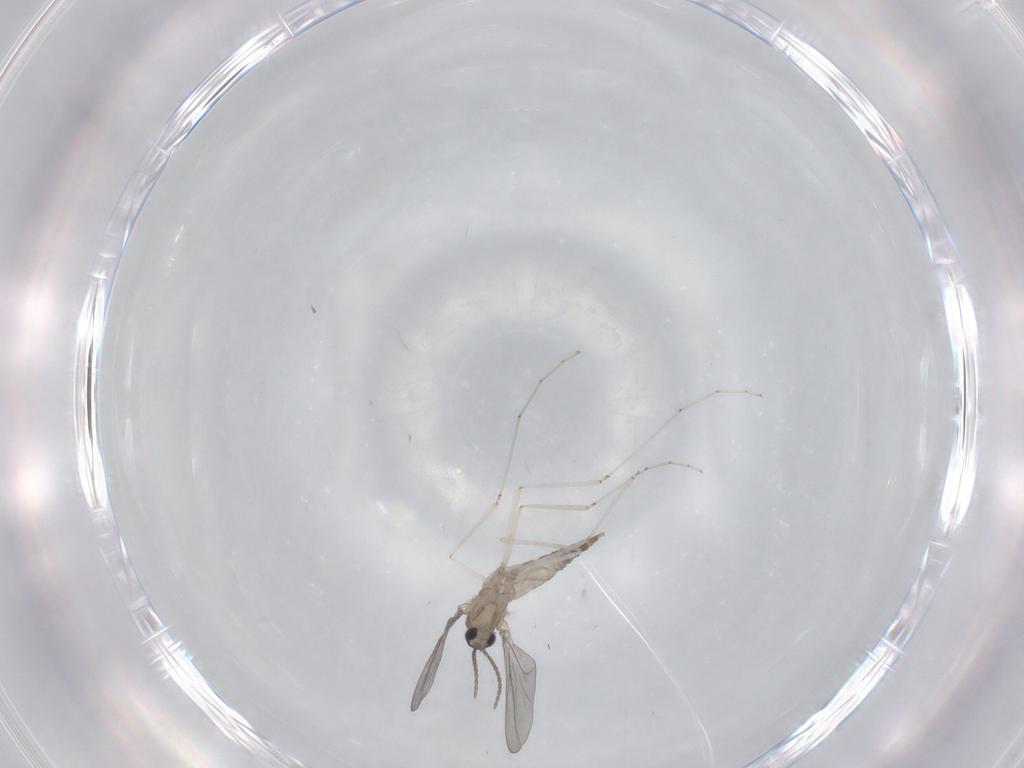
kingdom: Animalia
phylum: Arthropoda
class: Insecta
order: Diptera
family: Cecidomyiidae
